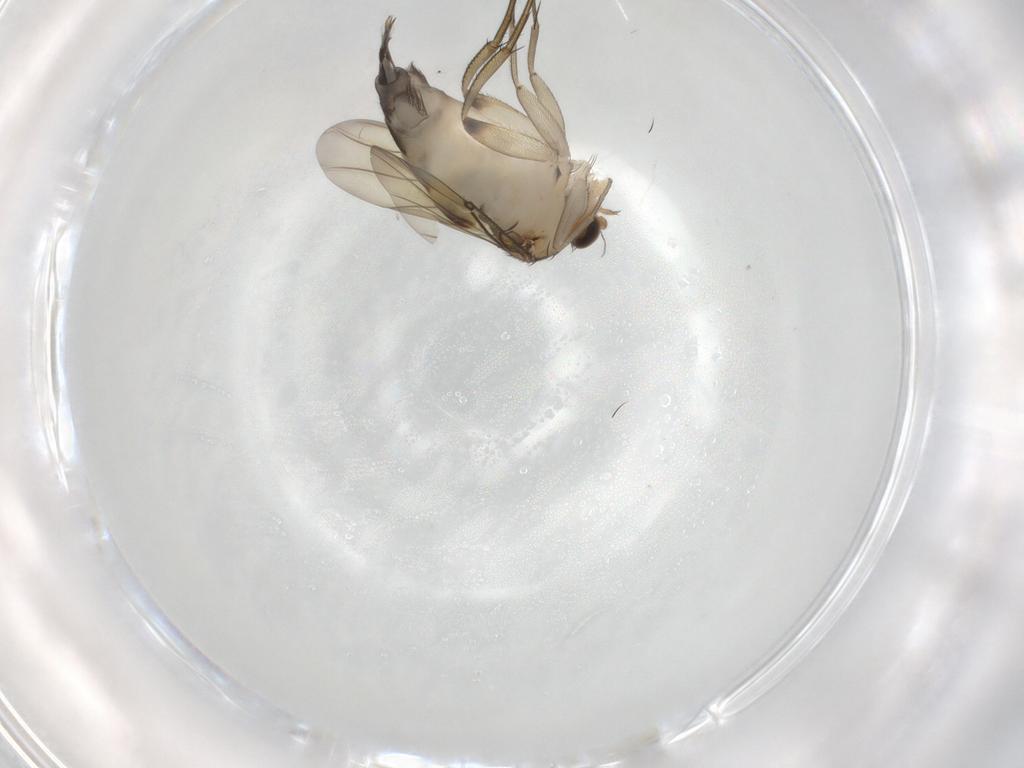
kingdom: Animalia
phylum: Arthropoda
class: Insecta
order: Diptera
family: Phoridae
